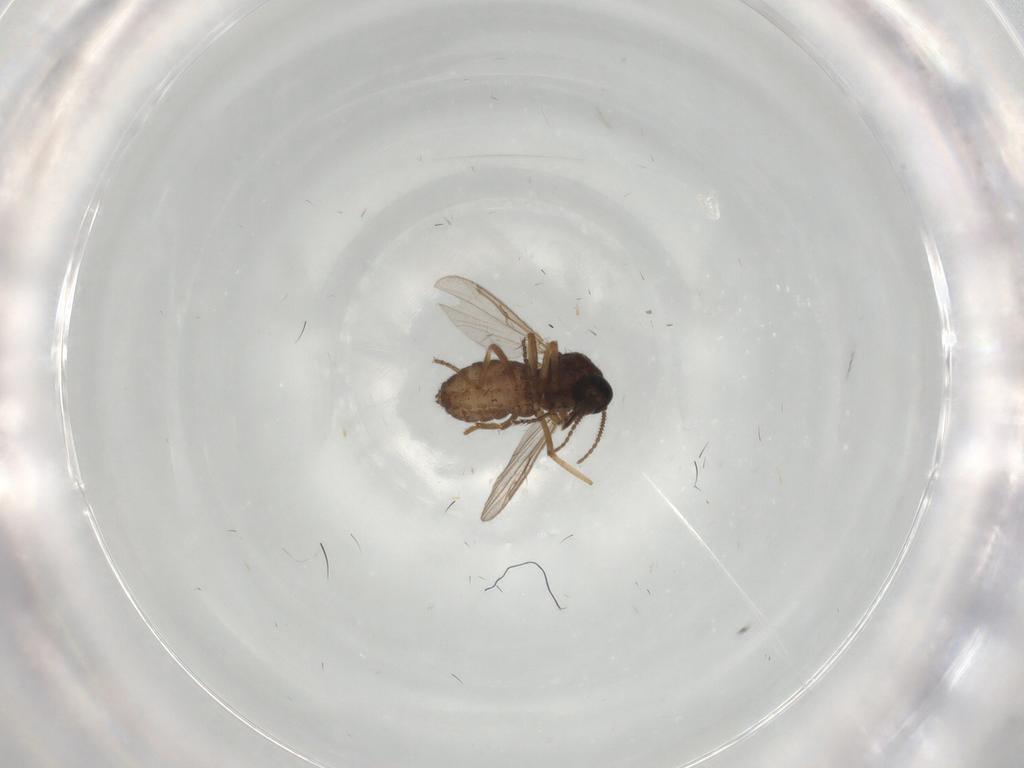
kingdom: Animalia
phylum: Arthropoda
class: Insecta
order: Diptera
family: Ceratopogonidae
